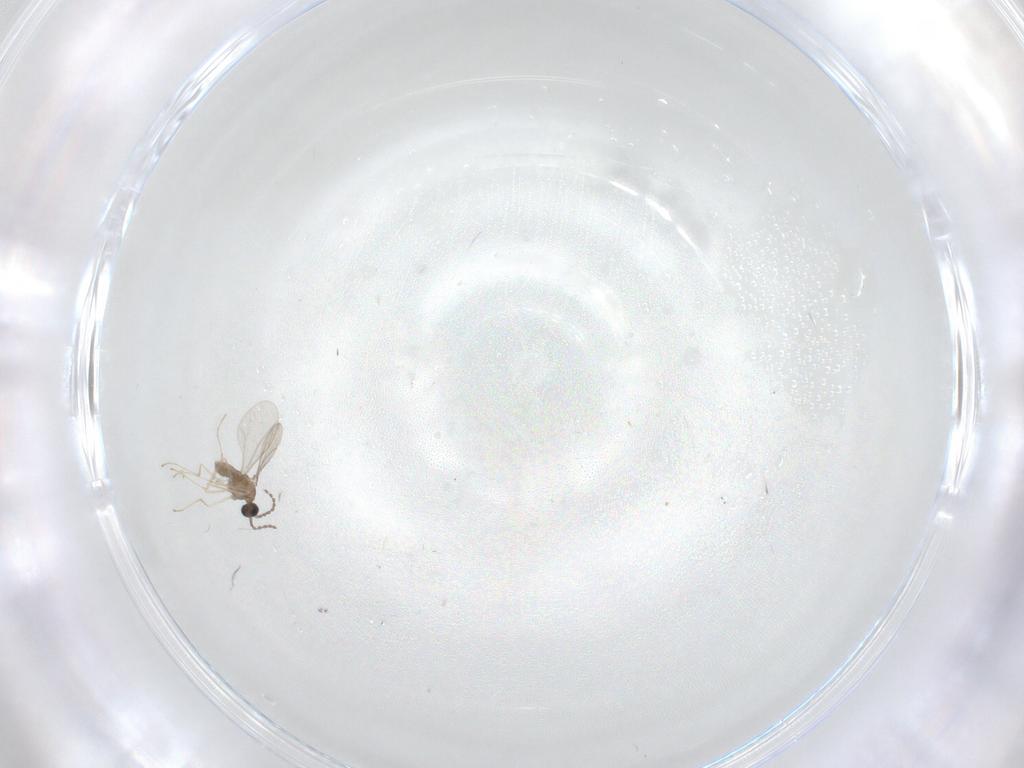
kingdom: Animalia
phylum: Arthropoda
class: Insecta
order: Diptera
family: Cecidomyiidae
